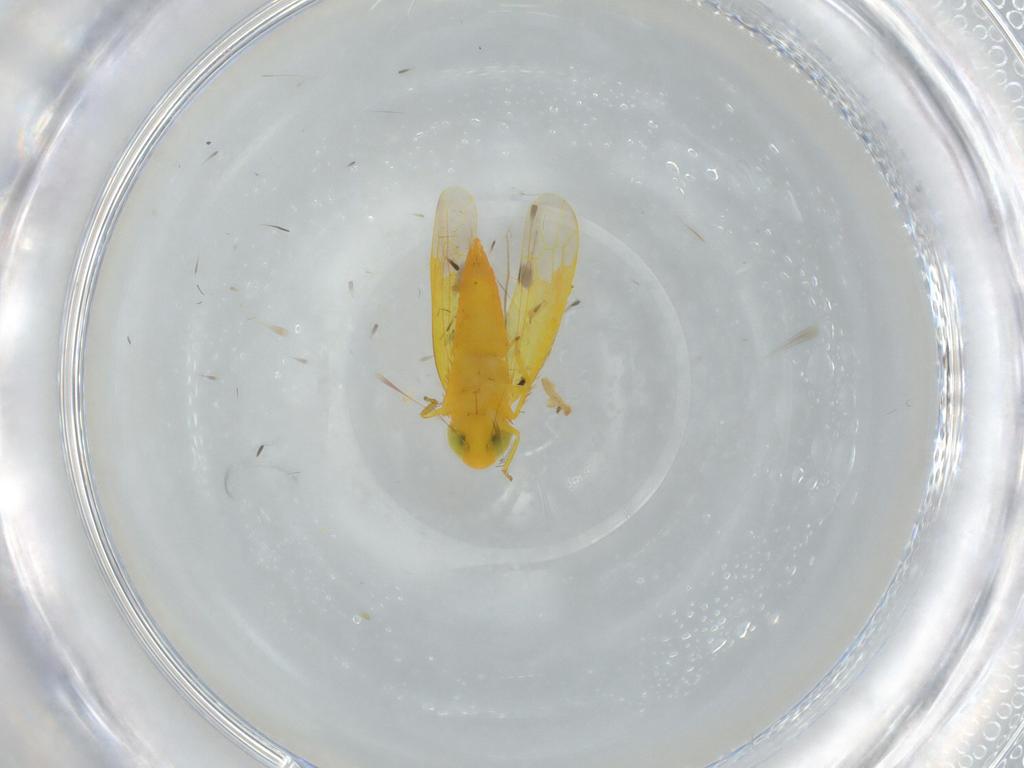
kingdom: Animalia
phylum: Arthropoda
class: Insecta
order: Hemiptera
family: Cicadellidae
